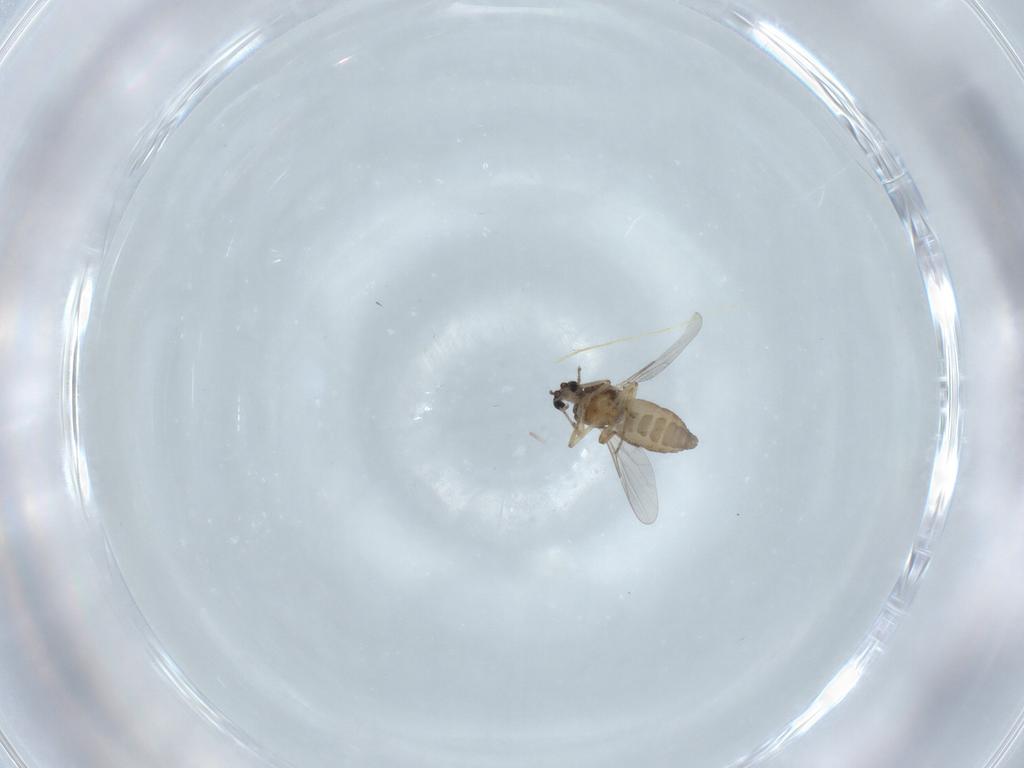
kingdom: Animalia
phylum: Arthropoda
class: Insecta
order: Diptera
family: Ceratopogonidae
